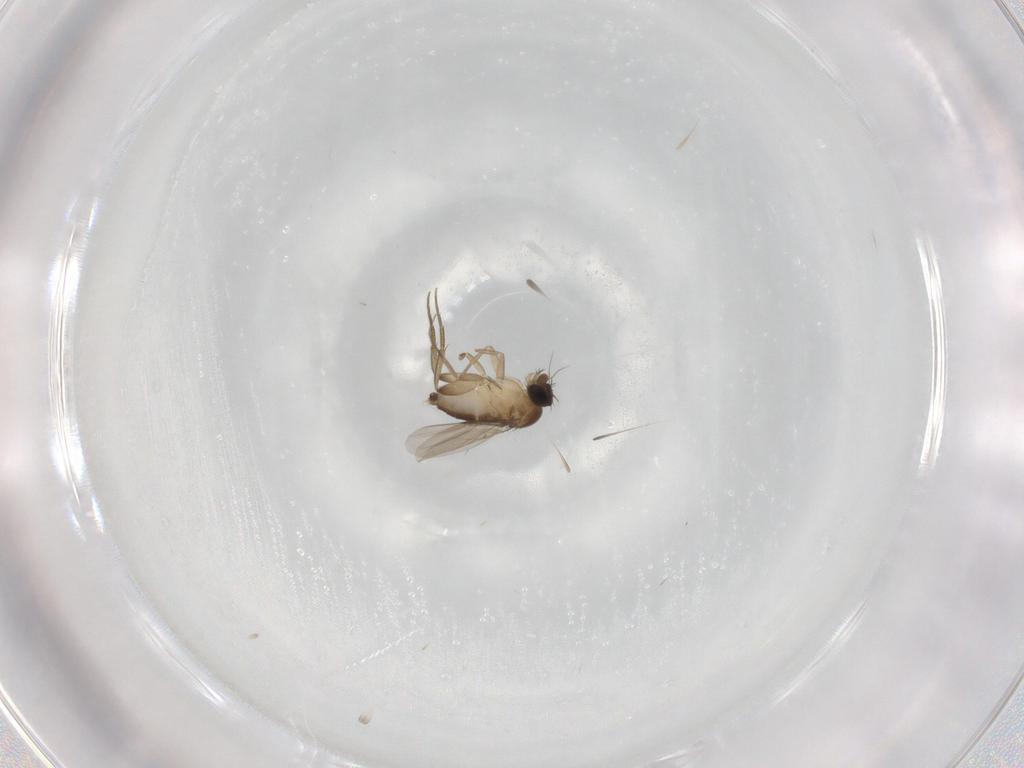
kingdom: Animalia
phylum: Arthropoda
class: Insecta
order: Diptera
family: Phoridae
